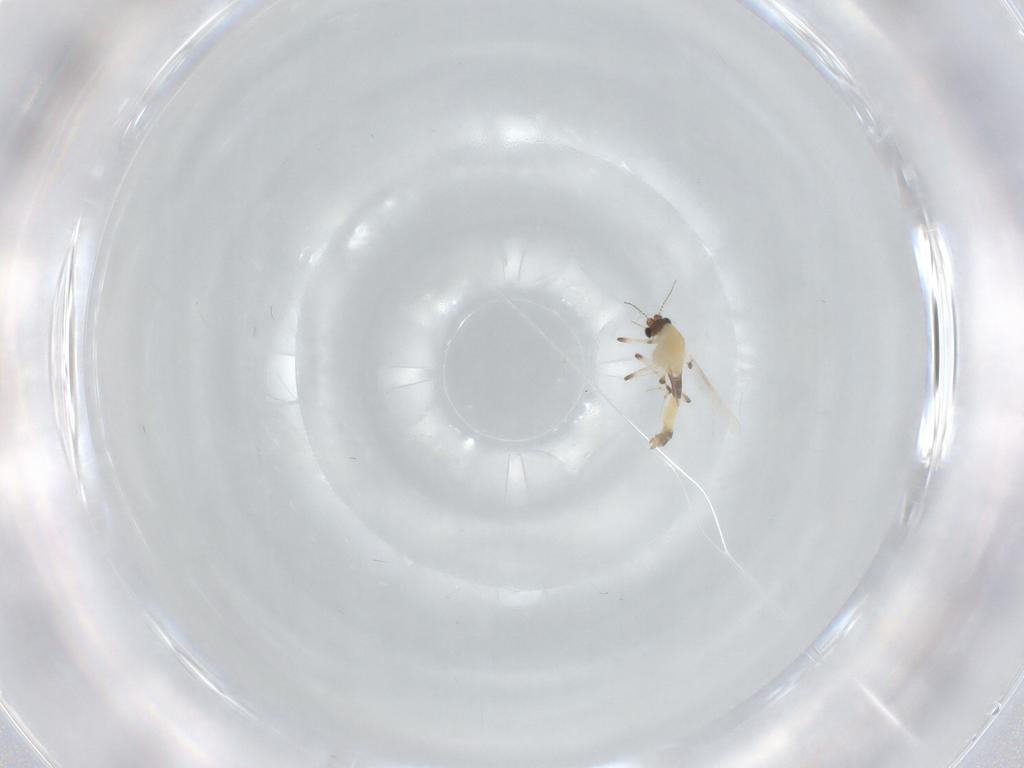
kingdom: Animalia
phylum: Arthropoda
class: Insecta
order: Diptera
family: Chironomidae
